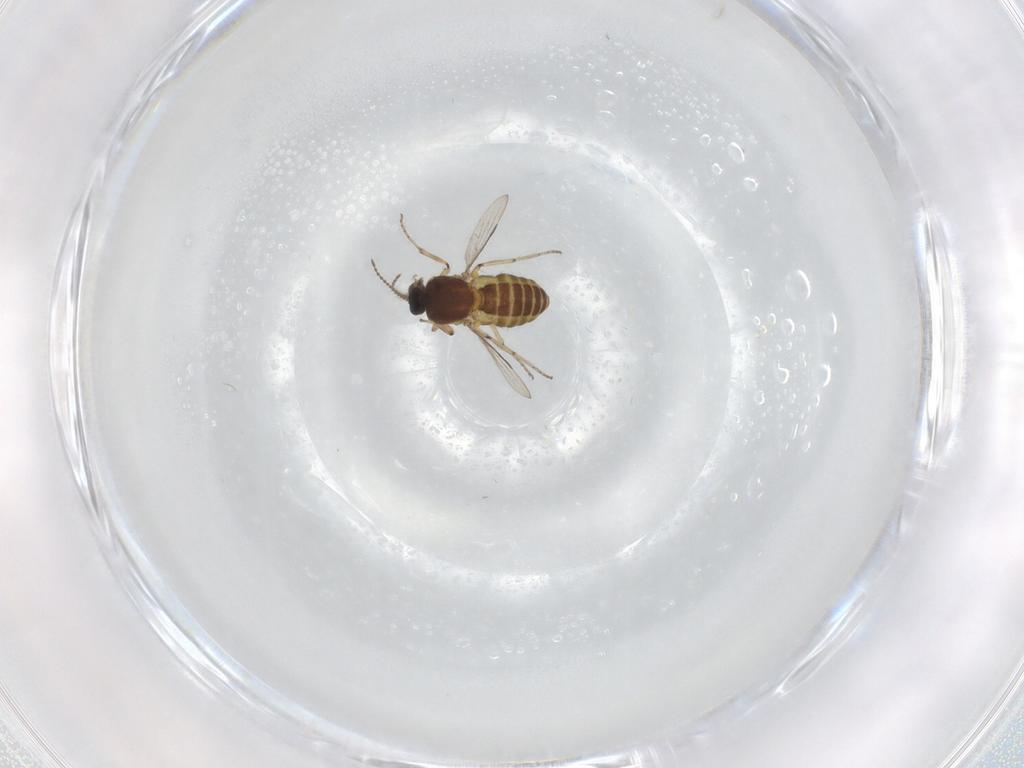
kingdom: Animalia
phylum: Arthropoda
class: Insecta
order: Diptera
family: Ceratopogonidae
